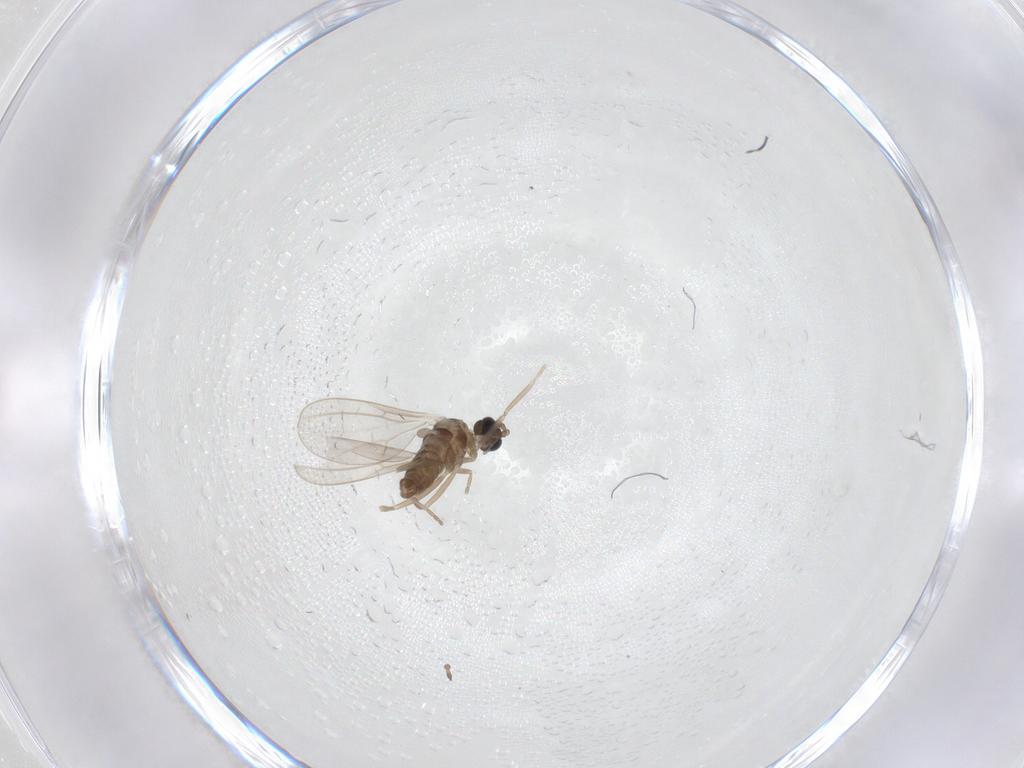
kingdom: Animalia
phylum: Arthropoda
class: Insecta
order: Diptera
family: Cecidomyiidae
